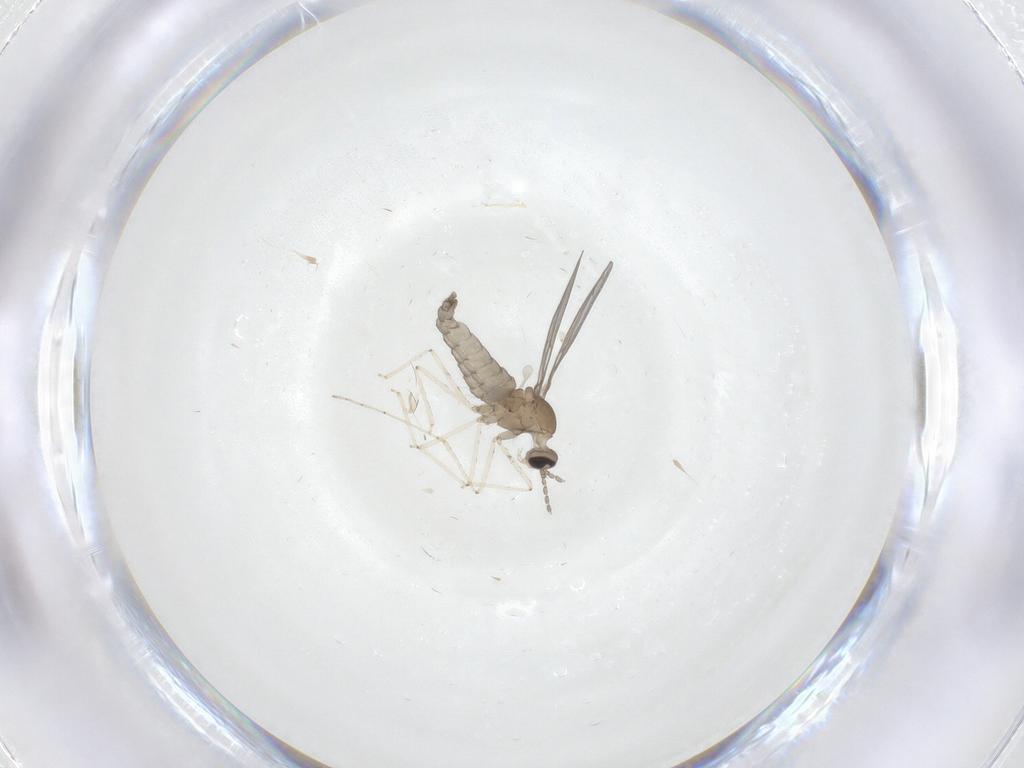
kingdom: Animalia
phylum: Arthropoda
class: Insecta
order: Diptera
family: Cecidomyiidae
